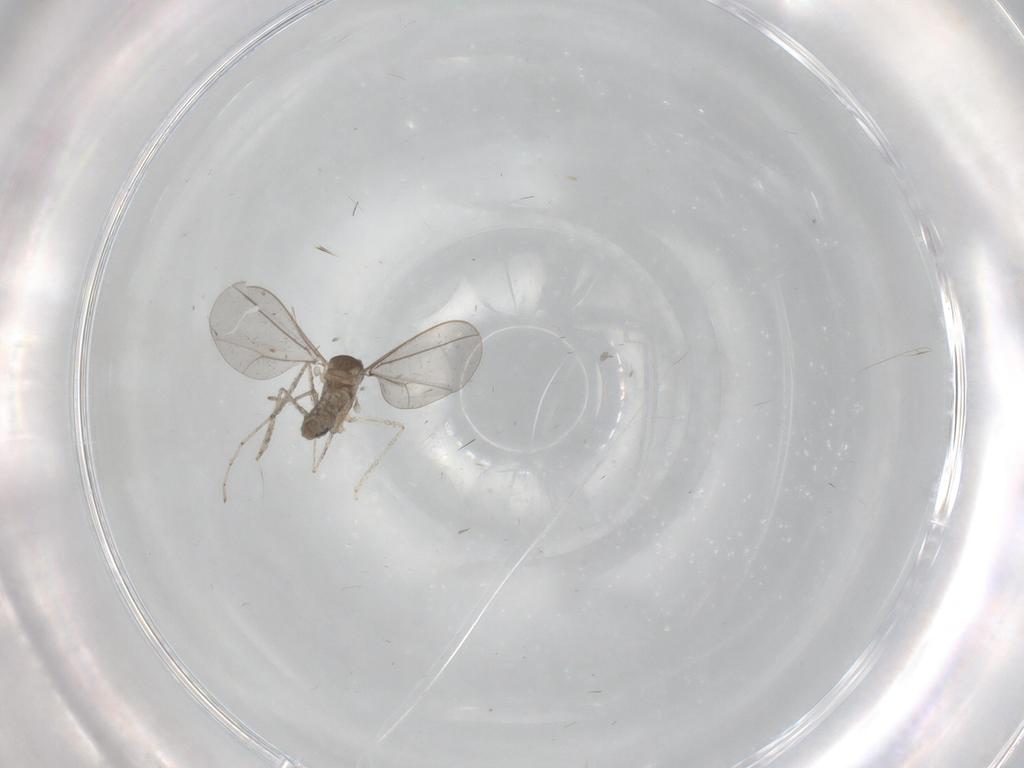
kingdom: Animalia
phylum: Arthropoda
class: Insecta
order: Diptera
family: Cecidomyiidae
